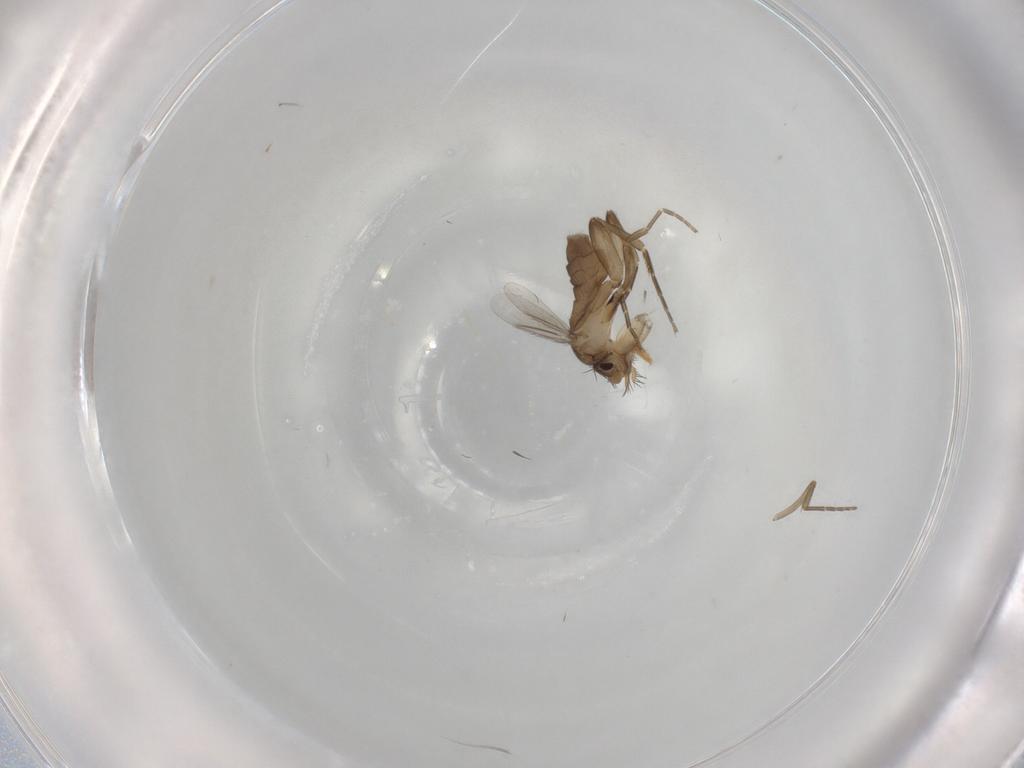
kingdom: Animalia
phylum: Arthropoda
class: Insecta
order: Diptera
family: Phoridae
